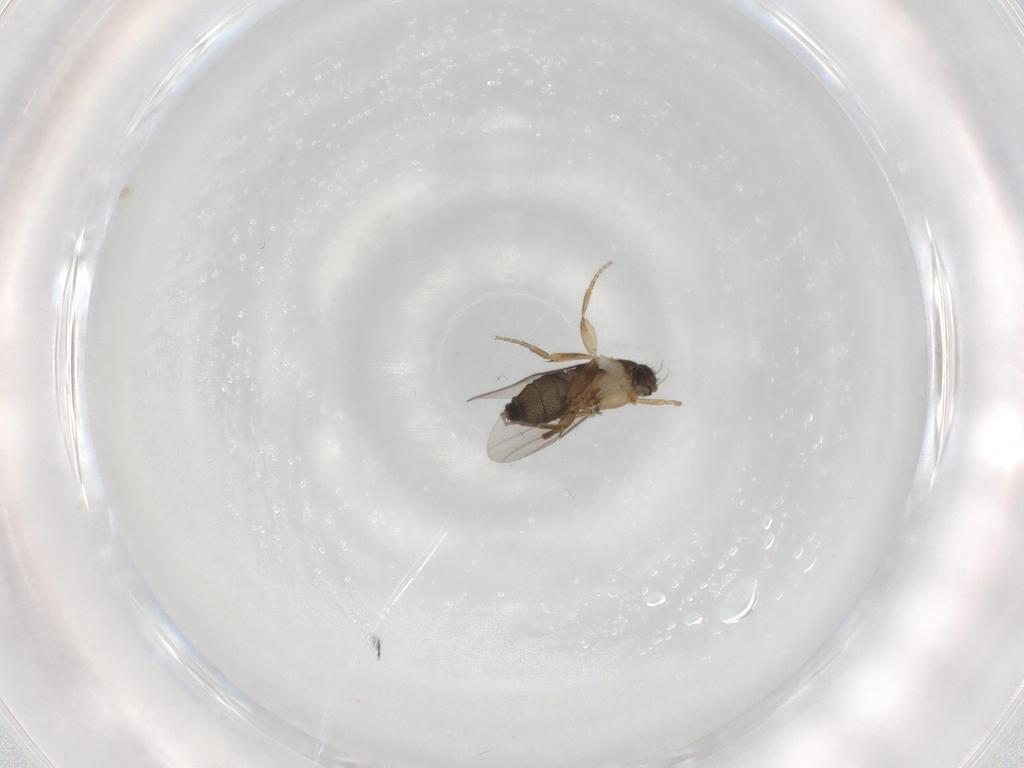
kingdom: Animalia
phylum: Arthropoda
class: Insecta
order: Diptera
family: Phoridae
